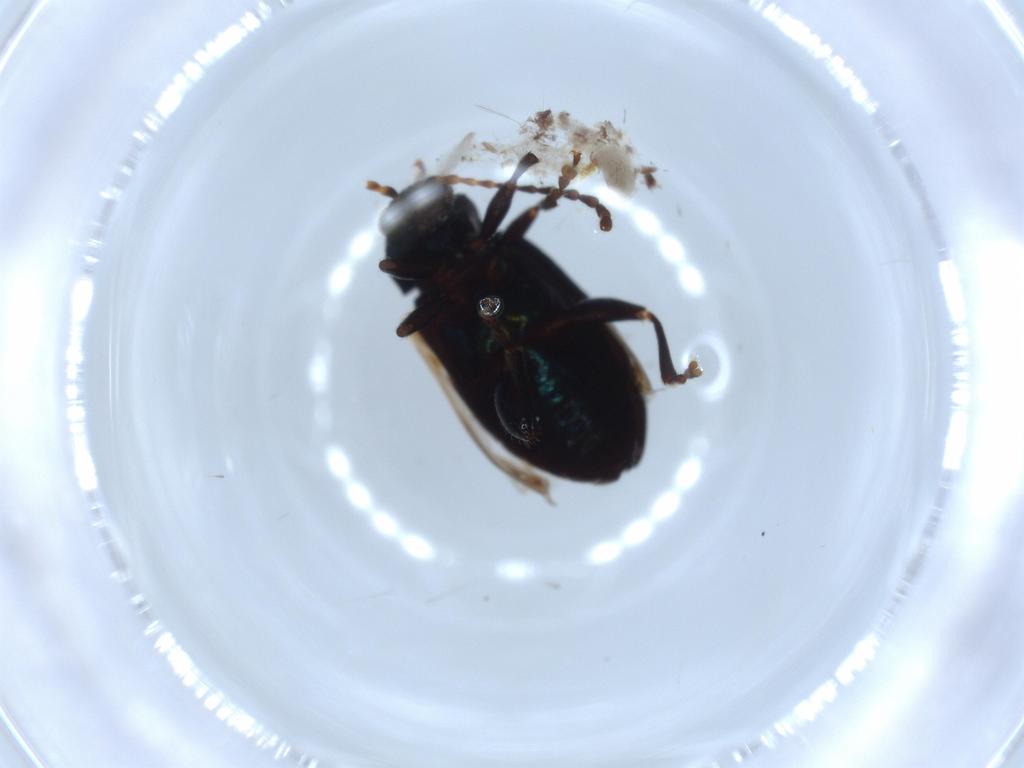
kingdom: Animalia
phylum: Arthropoda
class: Insecta
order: Coleoptera
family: Chrysomelidae
